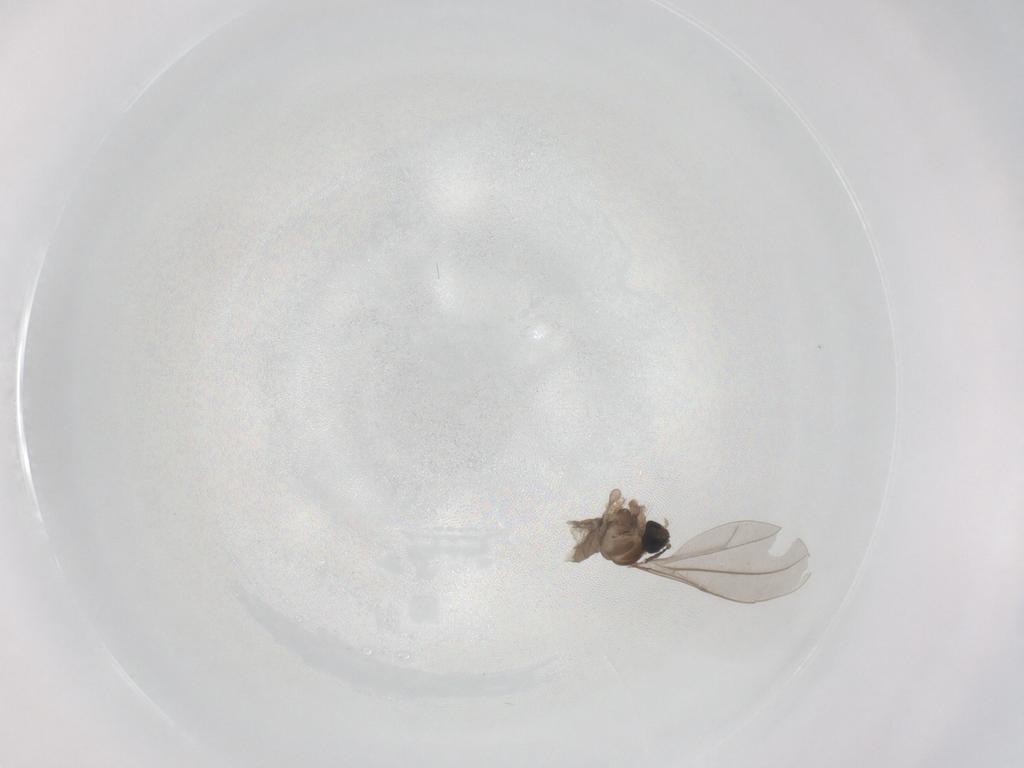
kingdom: Animalia
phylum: Arthropoda
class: Insecta
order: Diptera
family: Cecidomyiidae
